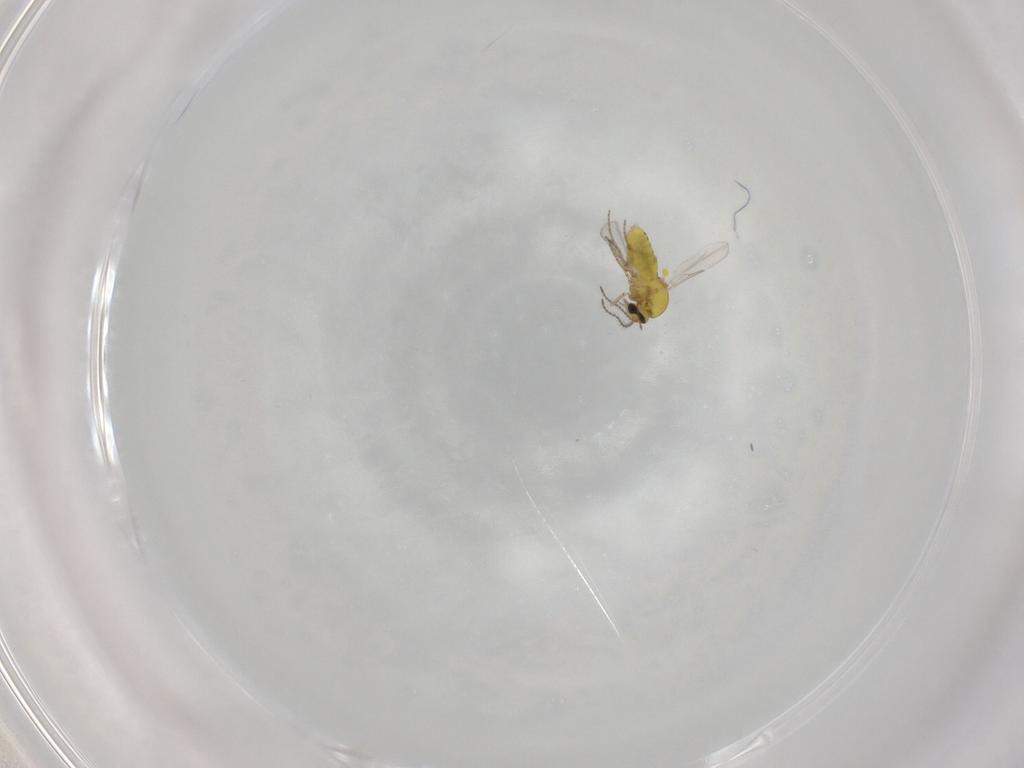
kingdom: Animalia
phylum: Arthropoda
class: Insecta
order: Diptera
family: Ceratopogonidae
